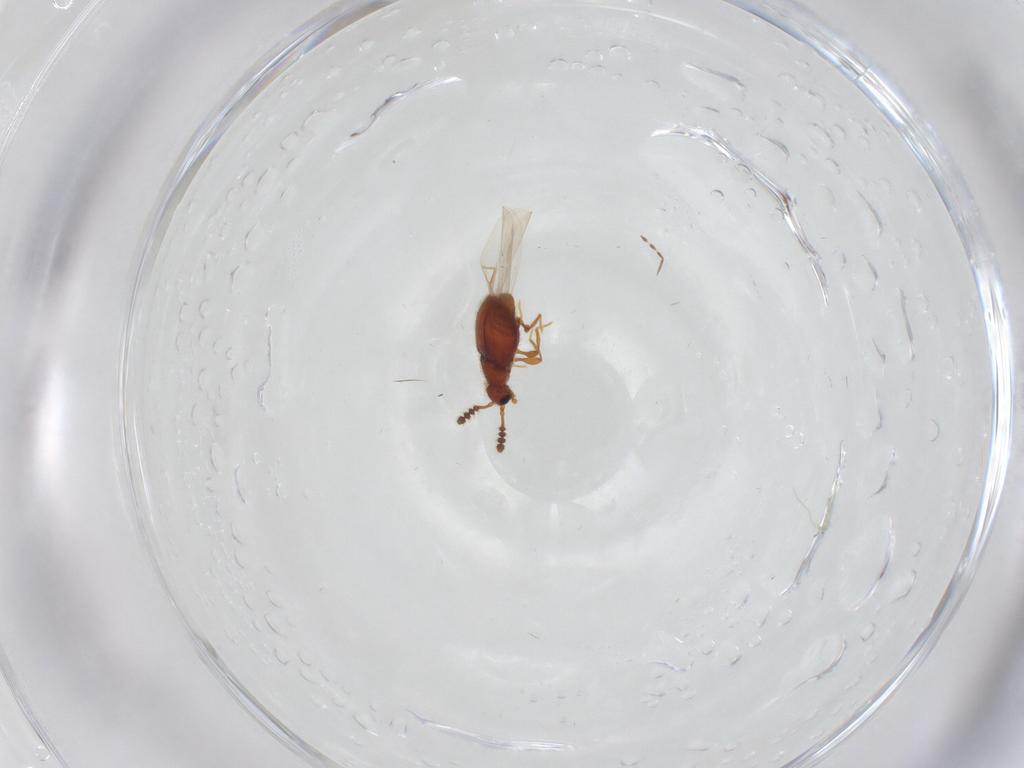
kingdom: Animalia
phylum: Arthropoda
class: Insecta
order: Coleoptera
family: Staphylinidae
